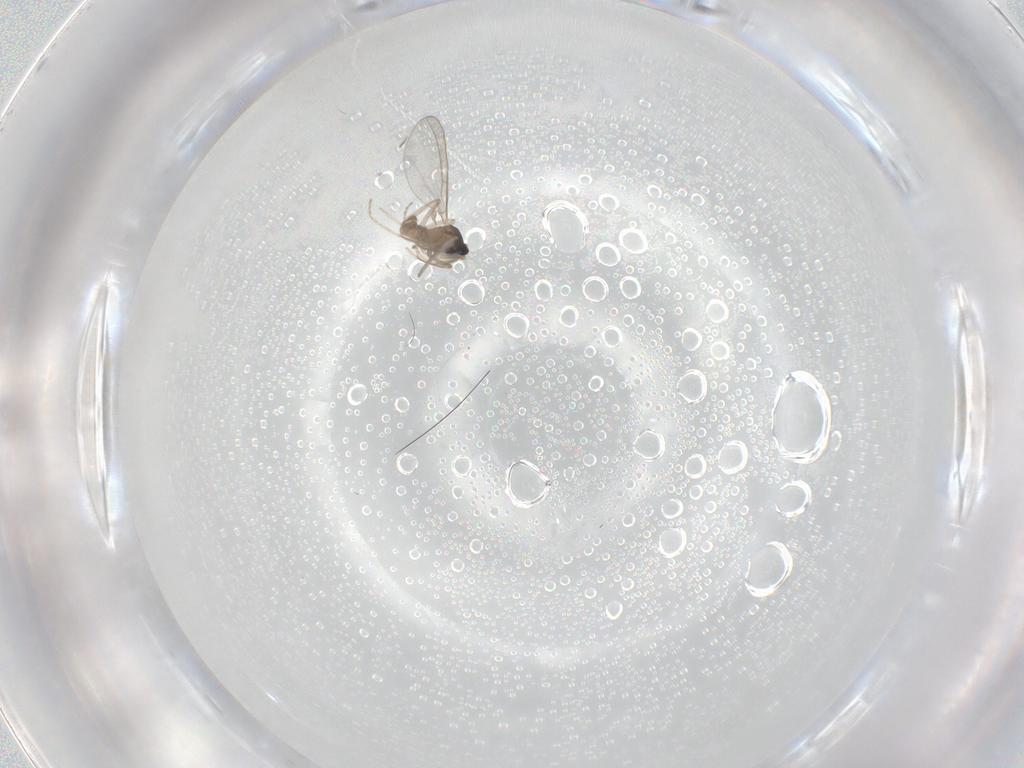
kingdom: Animalia
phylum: Arthropoda
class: Insecta
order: Diptera
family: Cecidomyiidae
